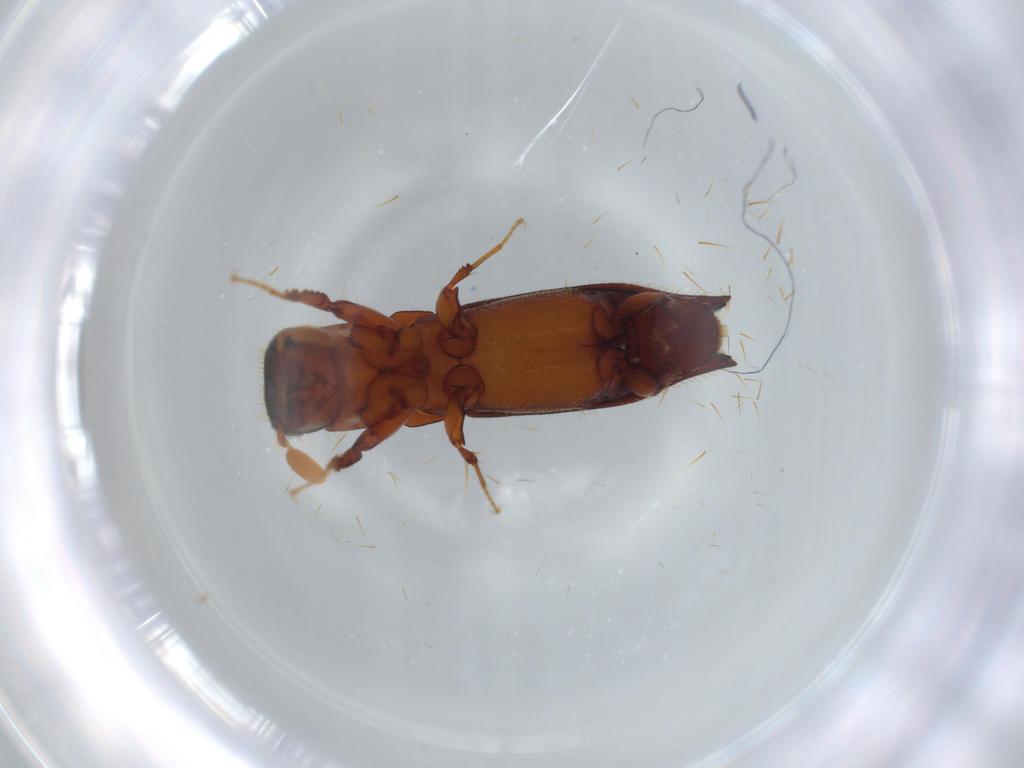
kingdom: Animalia
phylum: Arthropoda
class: Insecta
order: Coleoptera
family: Curculionidae
